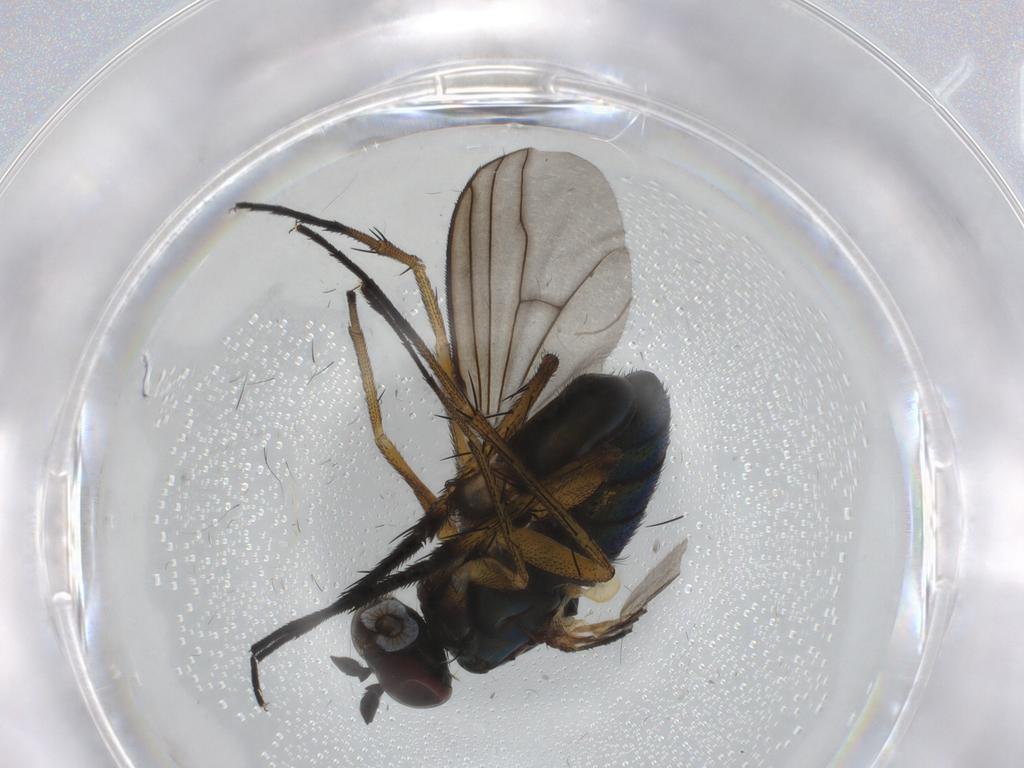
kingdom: Animalia
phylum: Arthropoda
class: Insecta
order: Diptera
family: Dolichopodidae
